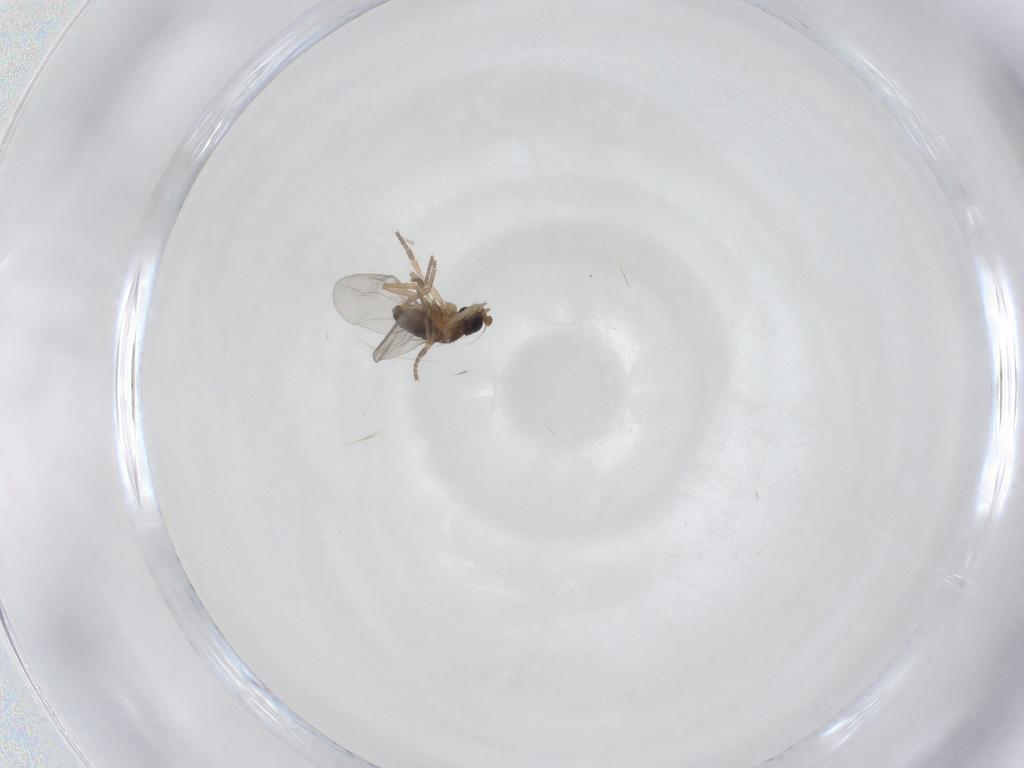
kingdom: Animalia
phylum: Arthropoda
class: Insecta
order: Diptera
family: Phoridae
